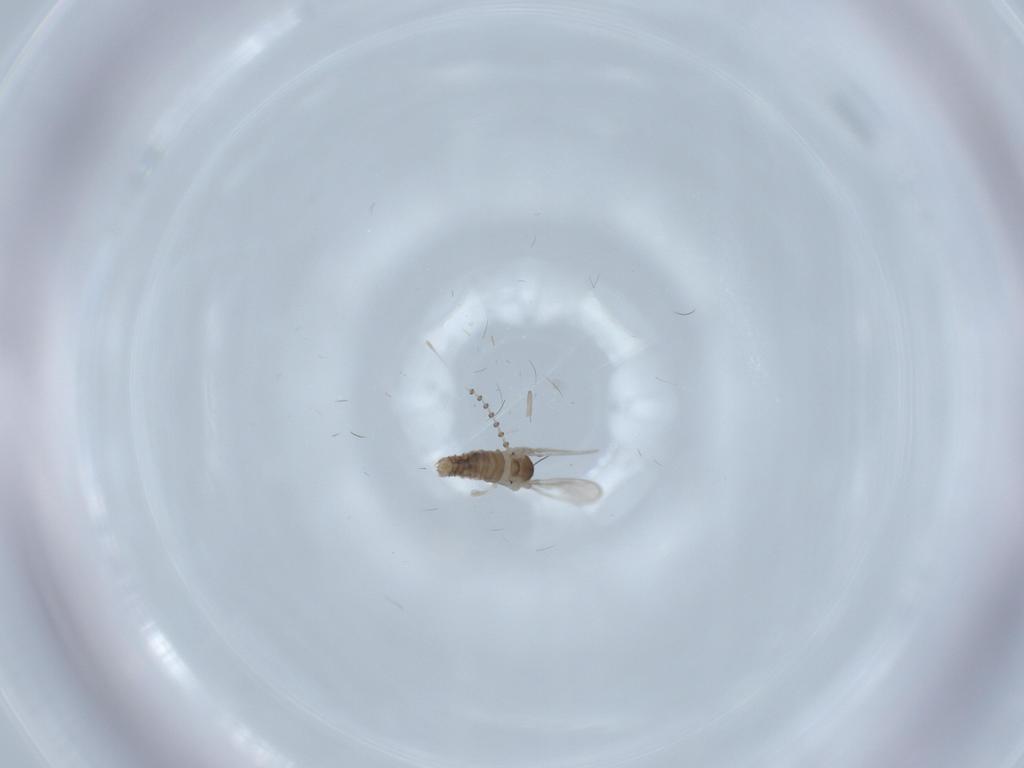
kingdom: Animalia
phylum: Arthropoda
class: Insecta
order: Diptera
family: Psychodidae
